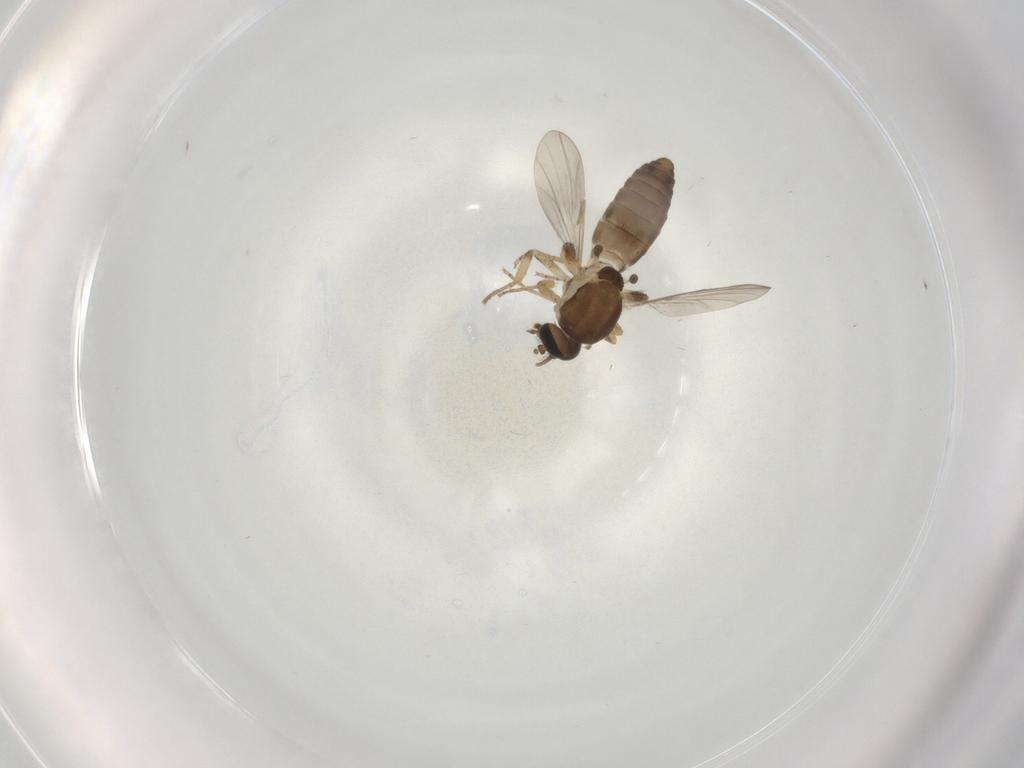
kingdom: Animalia
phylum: Arthropoda
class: Insecta
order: Diptera
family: Ceratopogonidae
